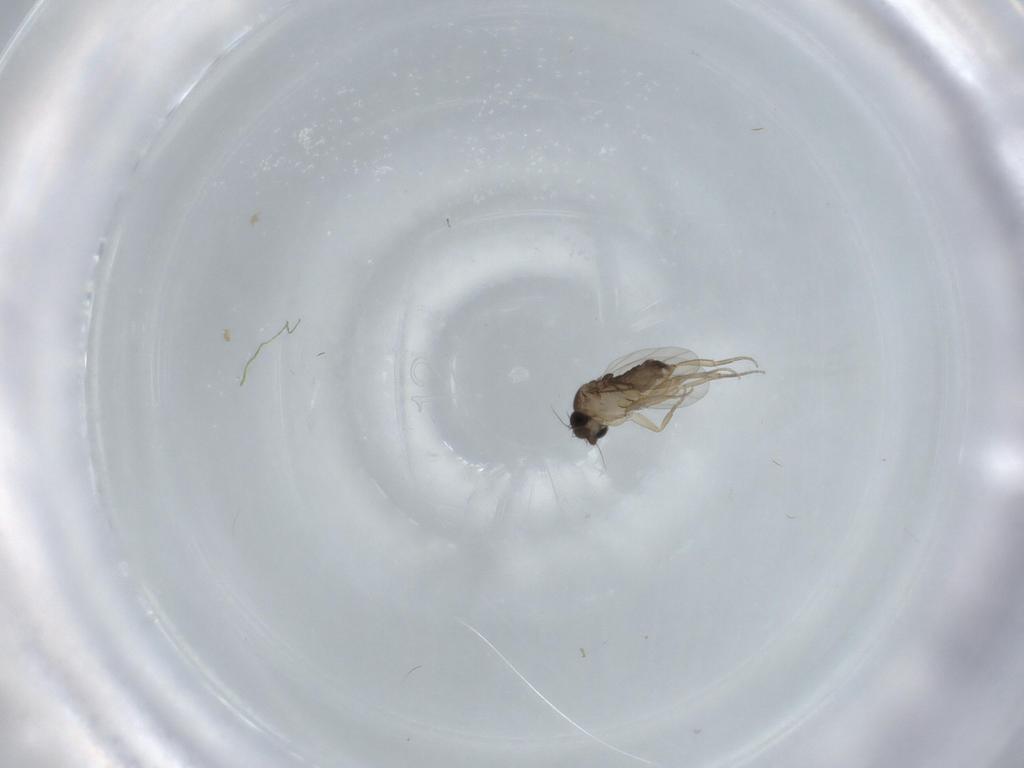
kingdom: Animalia
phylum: Arthropoda
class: Insecta
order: Diptera
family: Phoridae
